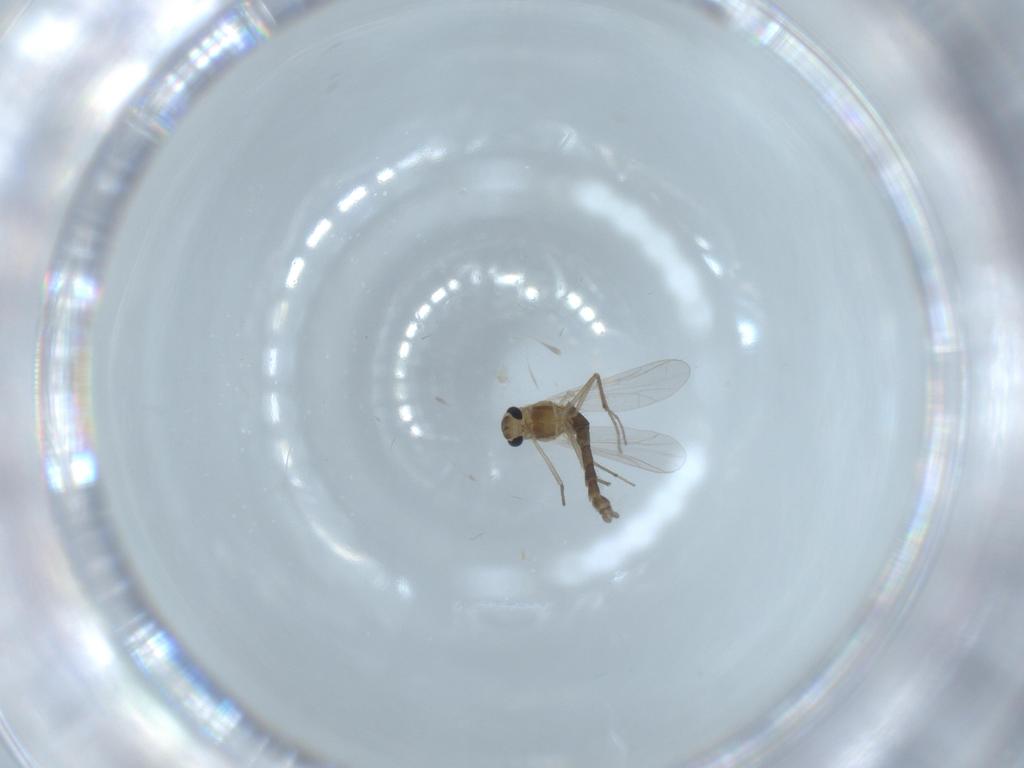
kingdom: Animalia
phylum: Arthropoda
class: Insecta
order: Diptera
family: Chironomidae
